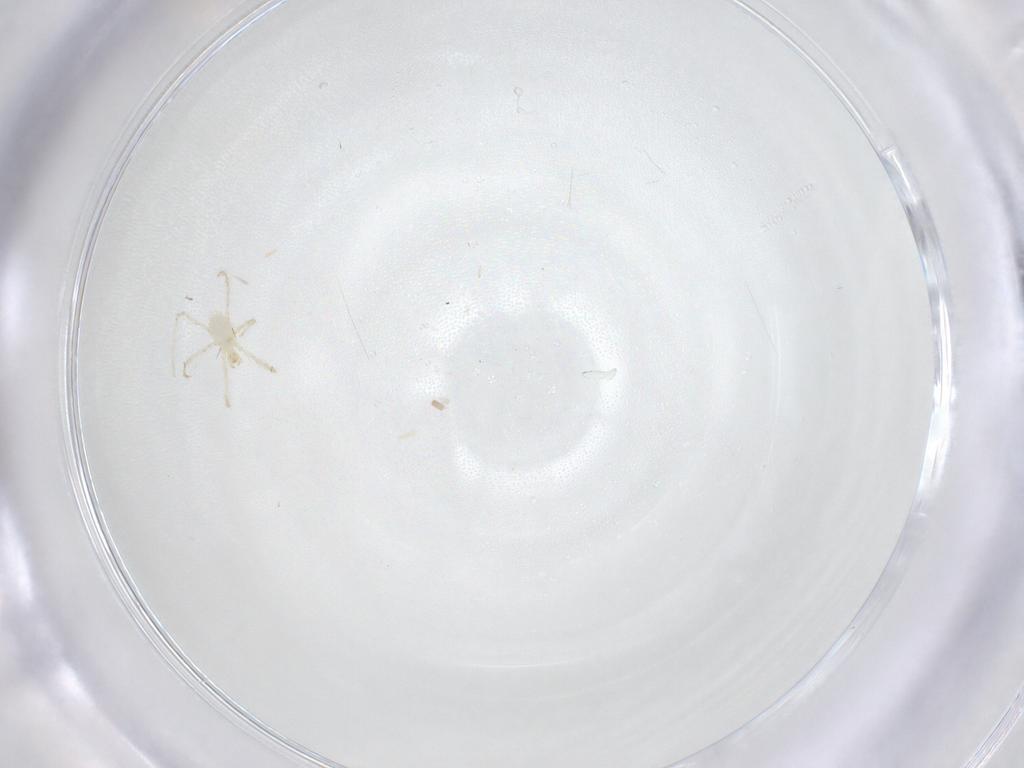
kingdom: Animalia
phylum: Arthropoda
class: Arachnida
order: Trombidiformes
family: Erythraeidae
